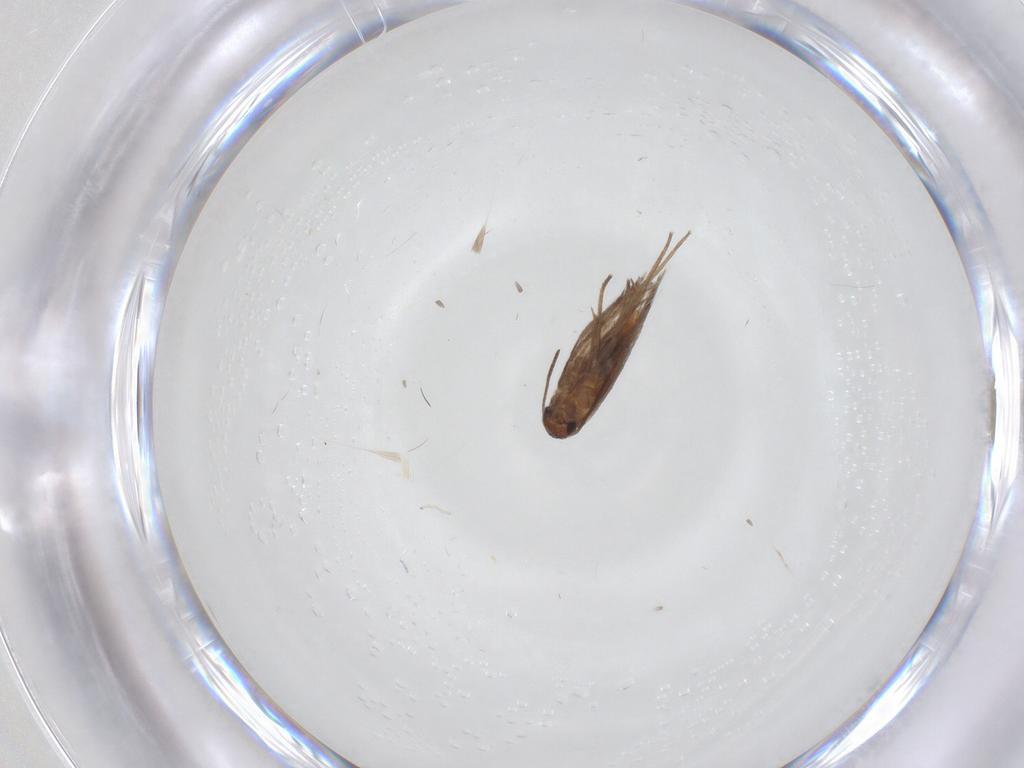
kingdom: Animalia
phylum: Arthropoda
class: Insecta
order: Lepidoptera
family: Heliozelidae
